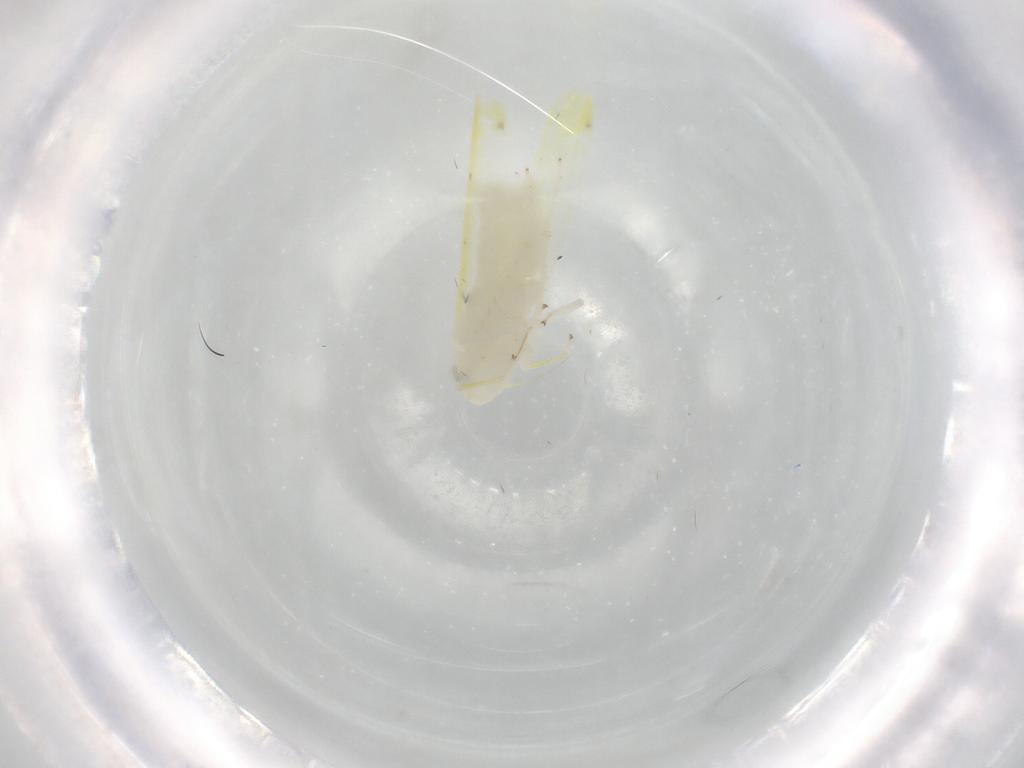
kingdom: Animalia
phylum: Arthropoda
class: Insecta
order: Hemiptera
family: Cicadellidae
